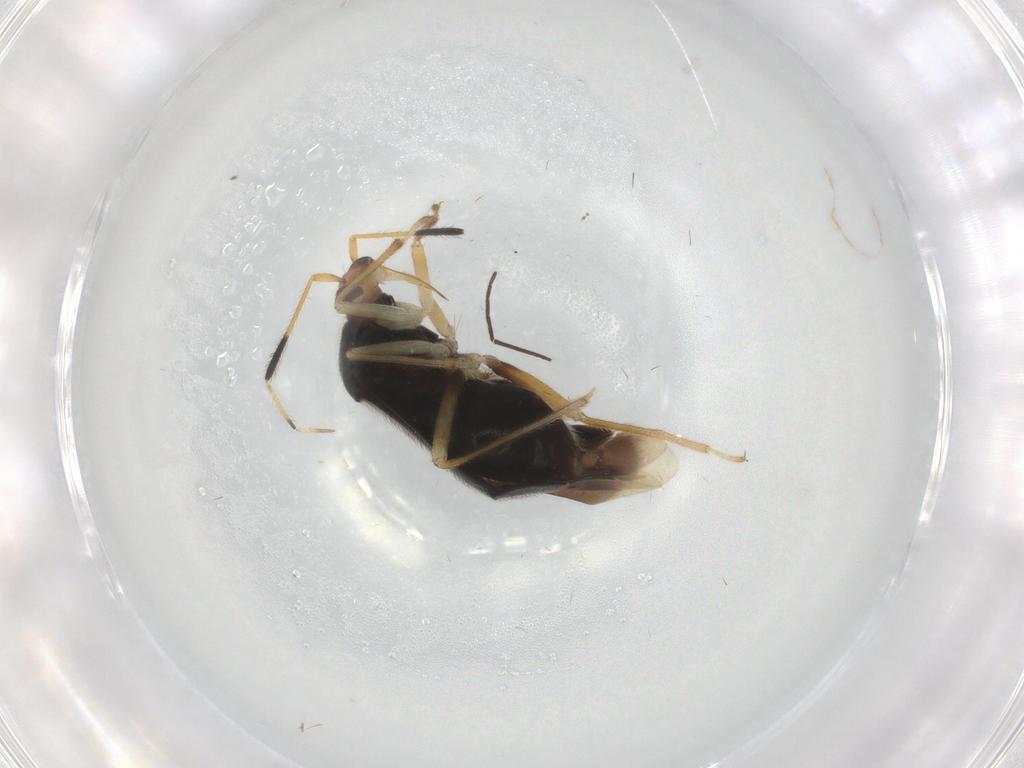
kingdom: Animalia
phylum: Arthropoda
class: Insecta
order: Hemiptera
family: Miridae
